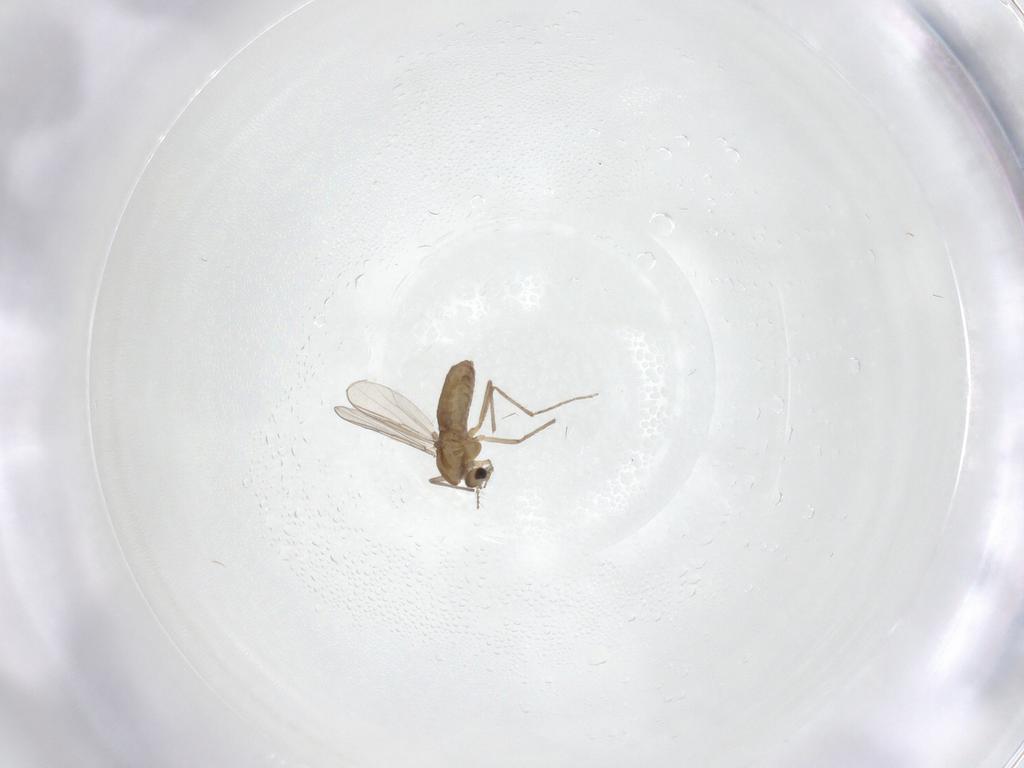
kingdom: Animalia
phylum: Arthropoda
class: Insecta
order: Diptera
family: Chironomidae
